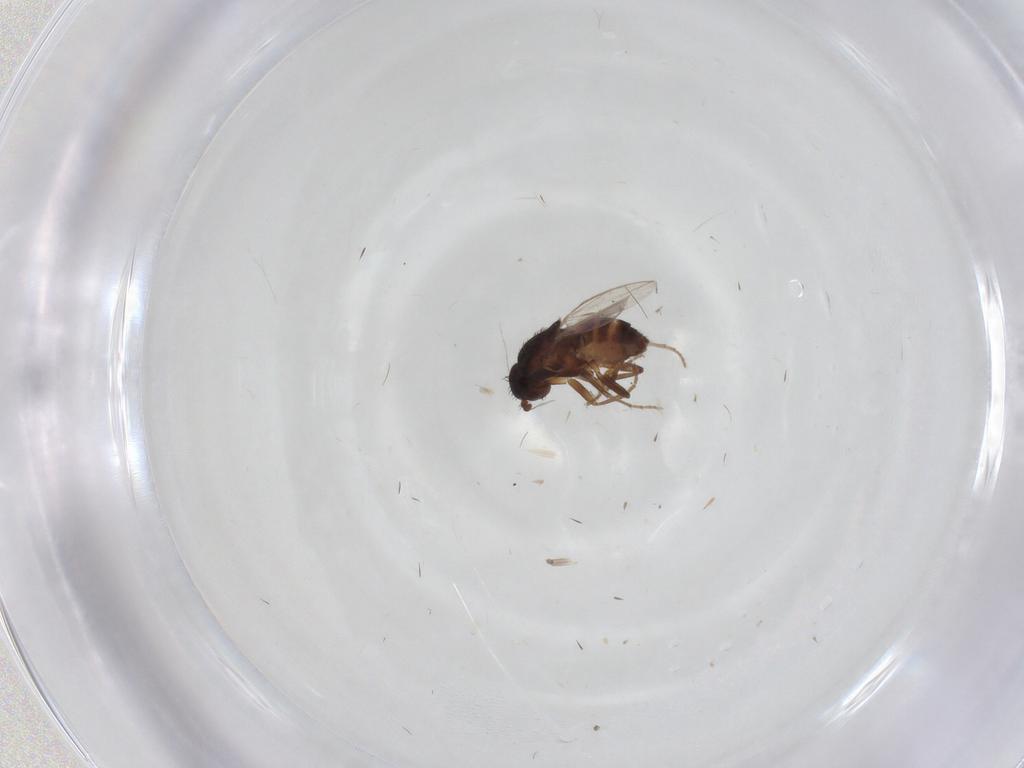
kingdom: Animalia
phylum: Arthropoda
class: Insecta
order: Diptera
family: Sphaeroceridae
